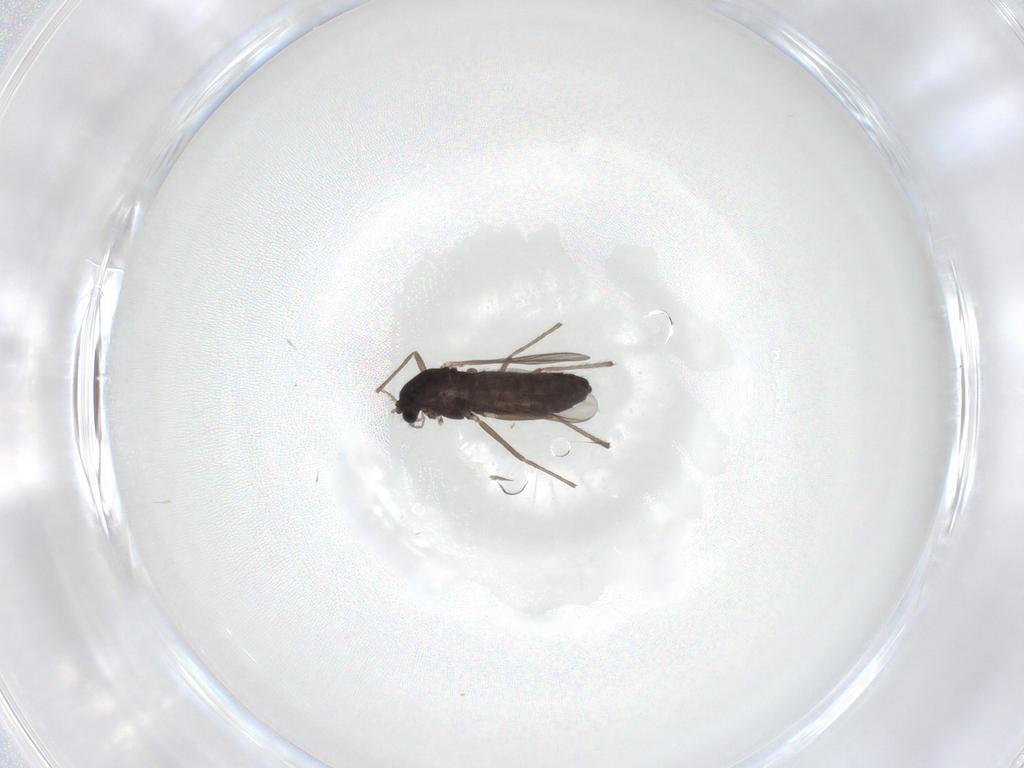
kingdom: Animalia
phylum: Arthropoda
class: Insecta
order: Diptera
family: Chironomidae
